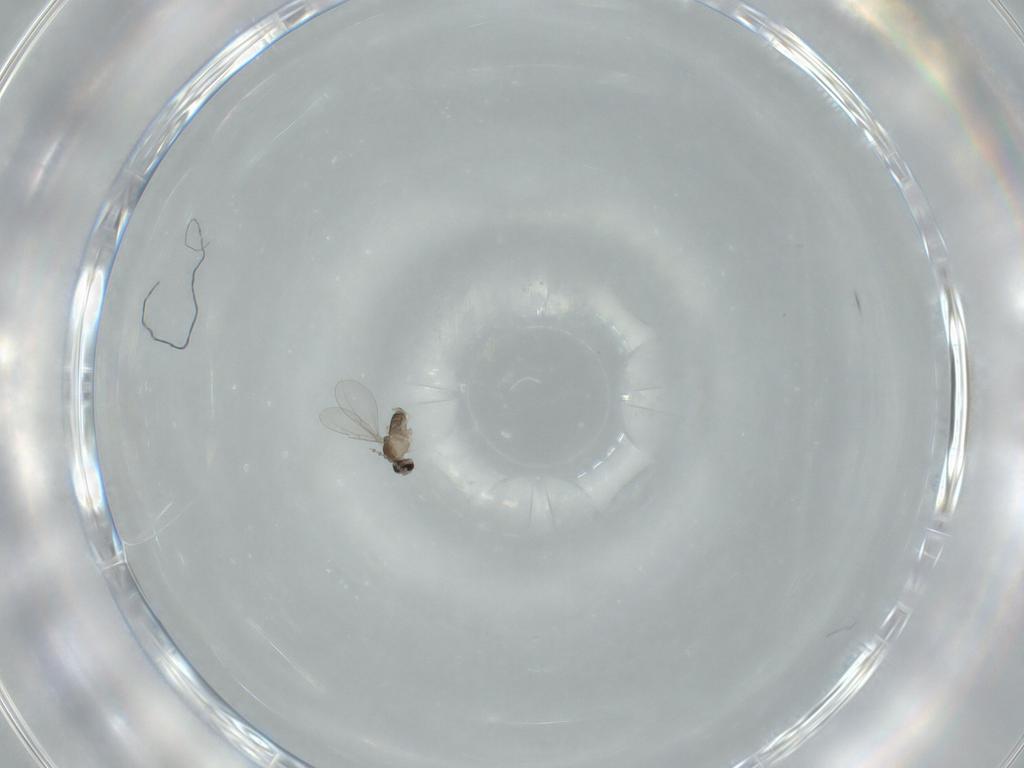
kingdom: Animalia
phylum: Arthropoda
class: Insecta
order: Diptera
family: Cecidomyiidae
